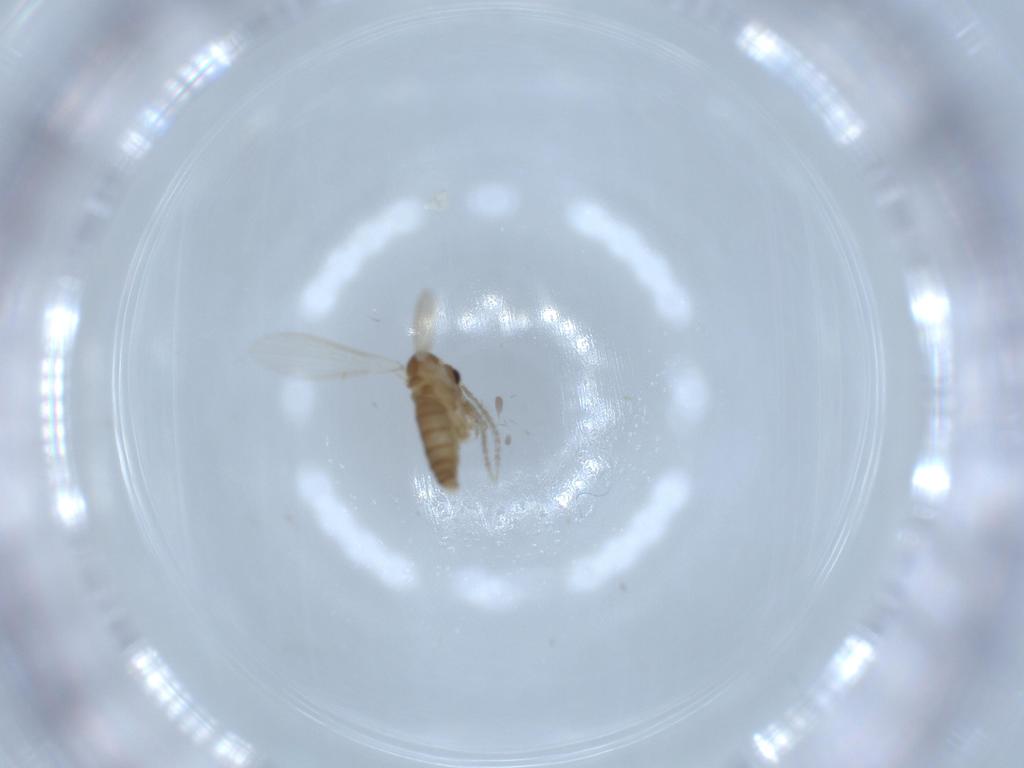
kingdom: Animalia
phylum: Arthropoda
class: Insecta
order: Diptera
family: Psychodidae
